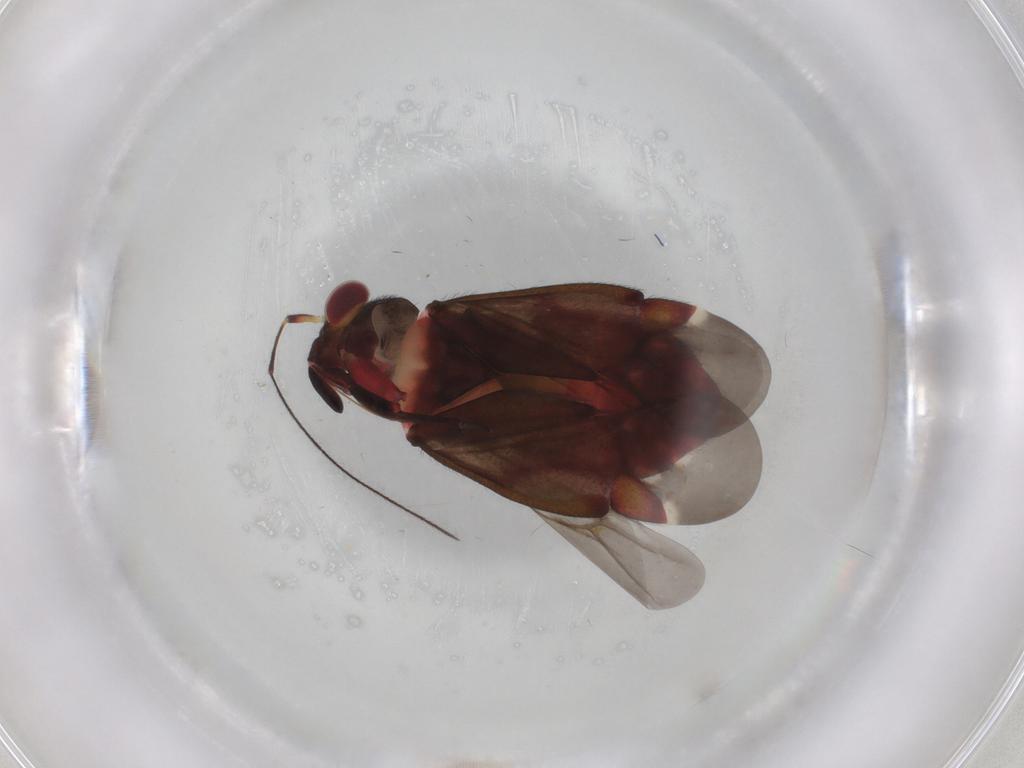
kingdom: Animalia
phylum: Arthropoda
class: Insecta
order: Hemiptera
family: Miridae
